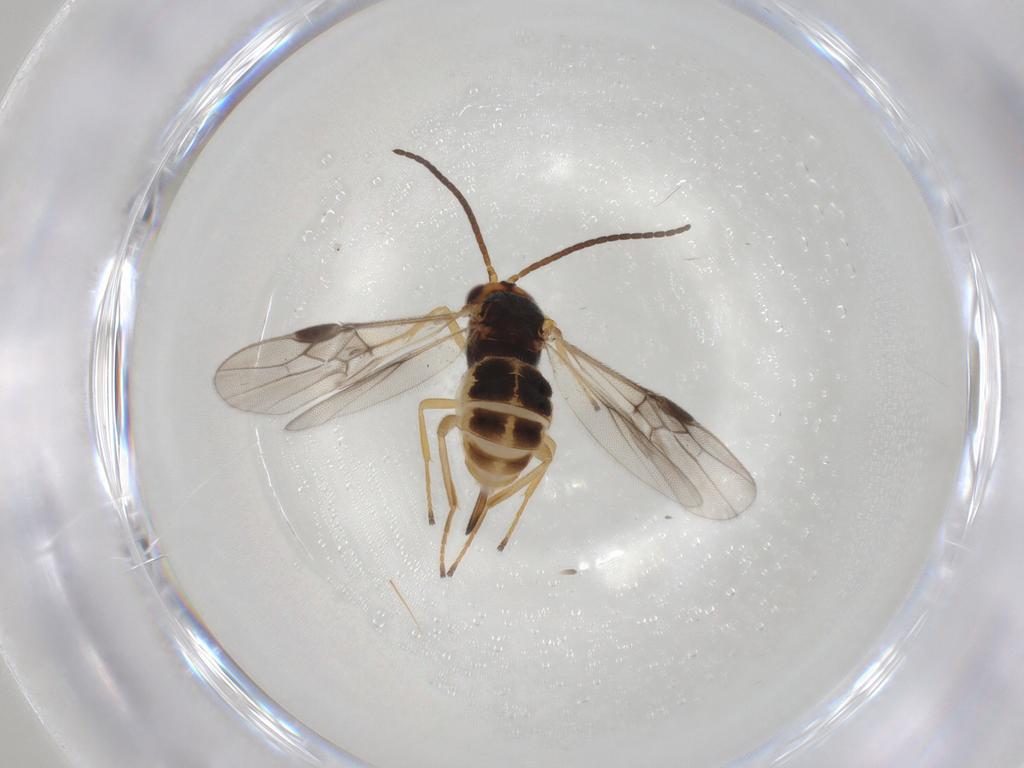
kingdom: Animalia
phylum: Arthropoda
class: Insecta
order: Hymenoptera
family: Braconidae
